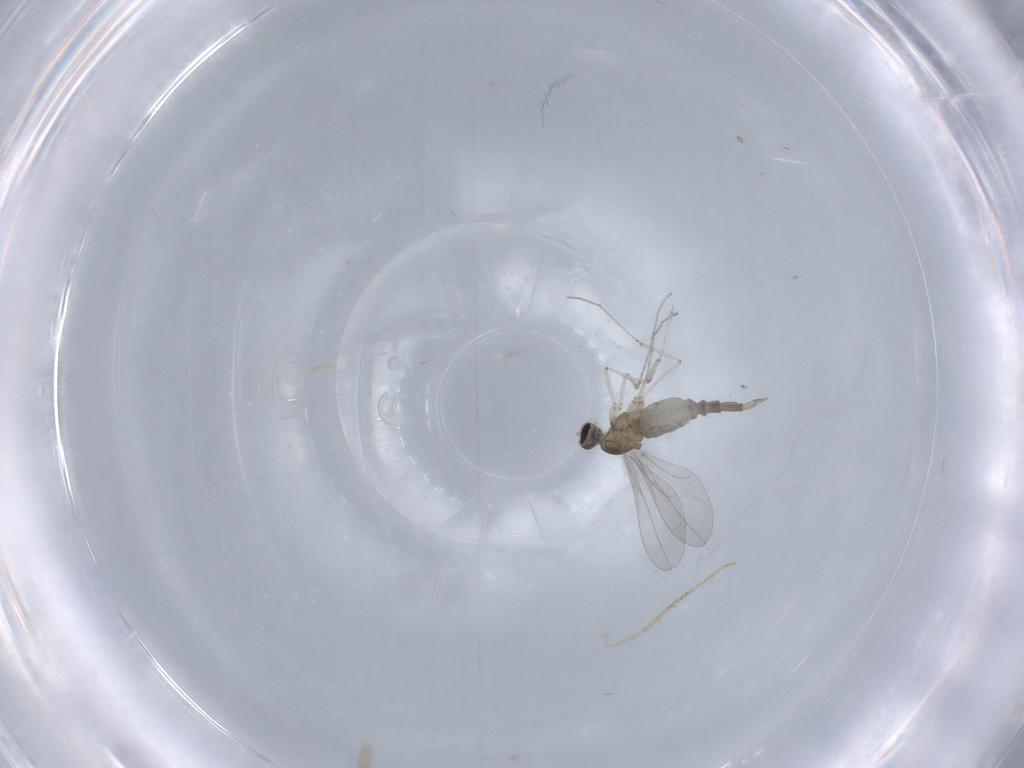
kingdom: Animalia
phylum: Arthropoda
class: Insecta
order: Diptera
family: Cecidomyiidae
